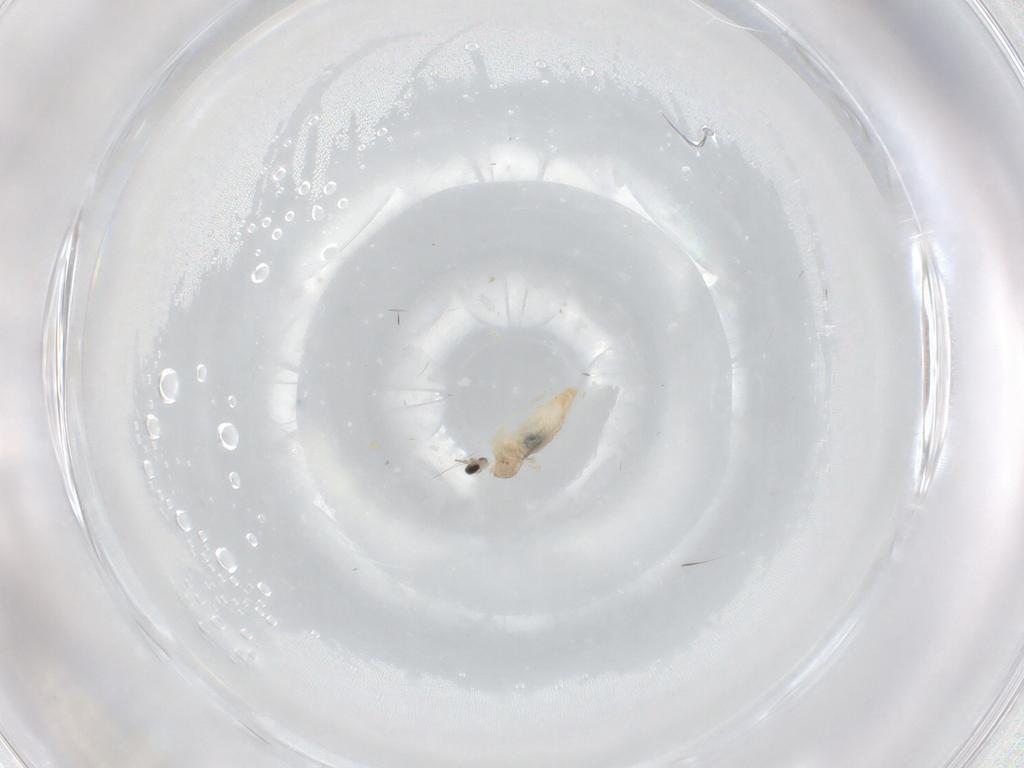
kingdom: Animalia
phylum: Arthropoda
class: Insecta
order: Diptera
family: Cecidomyiidae
